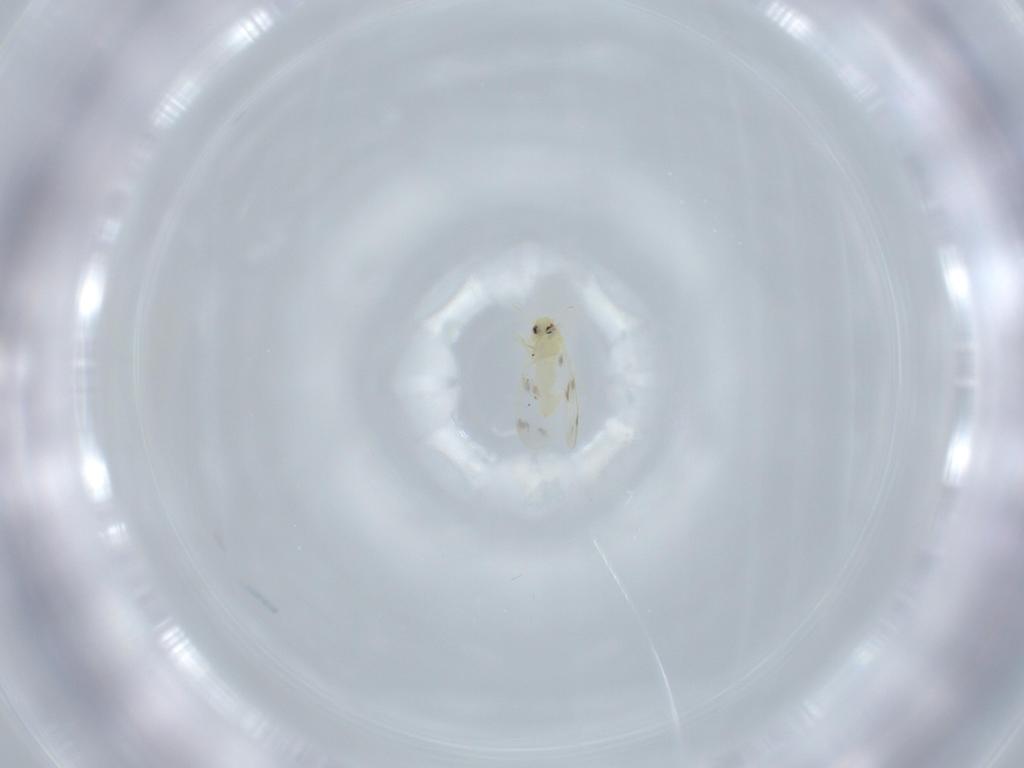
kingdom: Animalia
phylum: Arthropoda
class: Insecta
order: Hemiptera
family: Aleyrodidae
